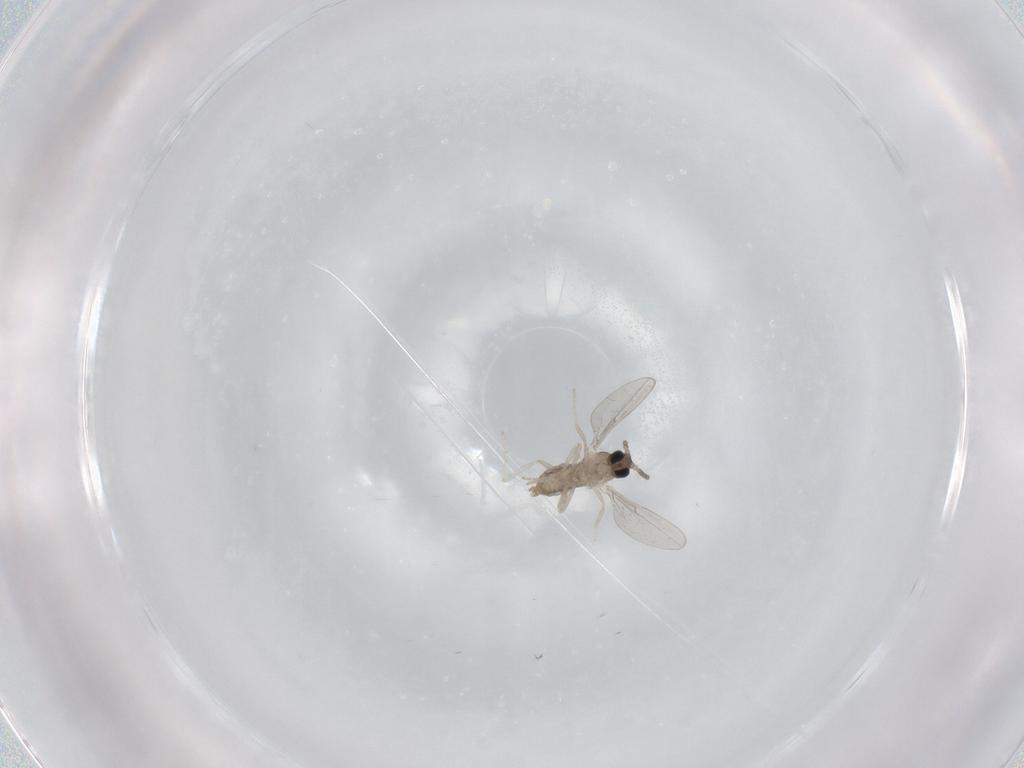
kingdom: Animalia
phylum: Arthropoda
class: Insecta
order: Diptera
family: Cecidomyiidae
